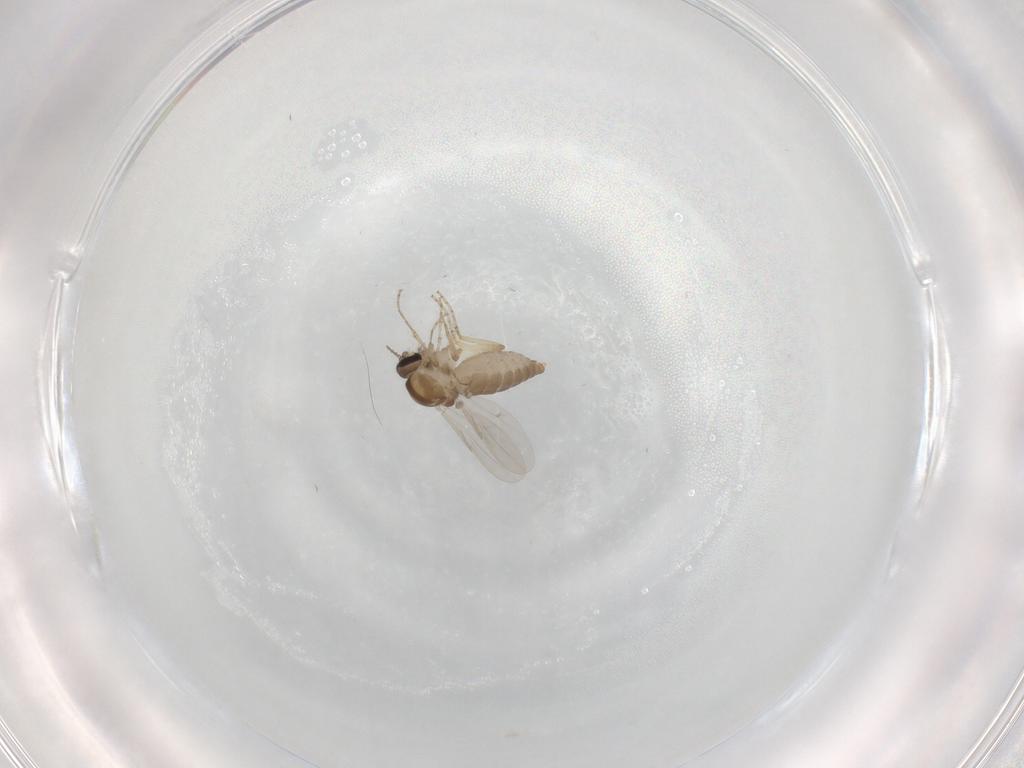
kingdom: Animalia
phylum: Arthropoda
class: Insecta
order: Diptera
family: Ceratopogonidae
